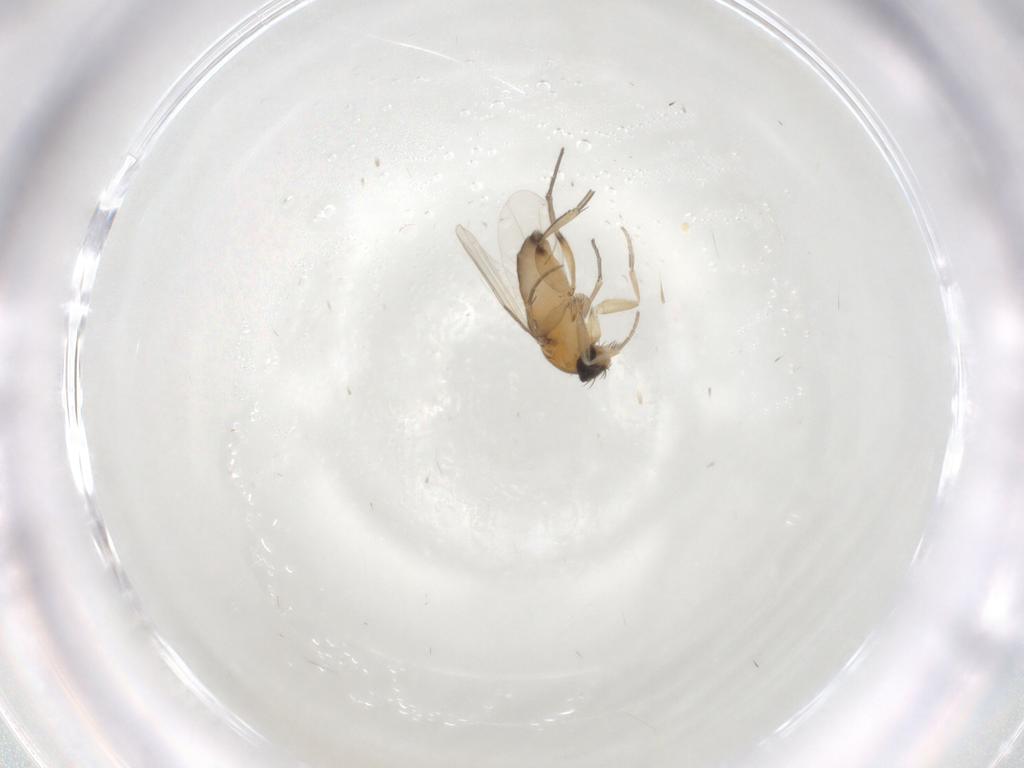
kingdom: Animalia
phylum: Arthropoda
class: Insecta
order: Diptera
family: Phoridae
